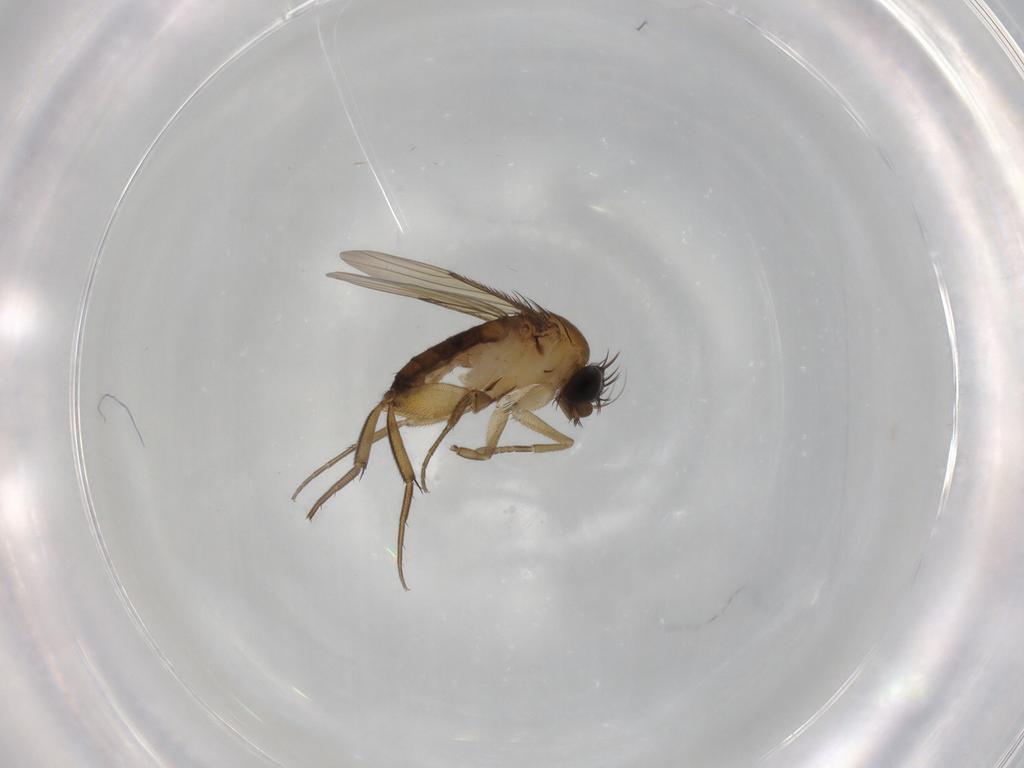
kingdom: Animalia
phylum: Arthropoda
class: Insecta
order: Diptera
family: Phoridae
